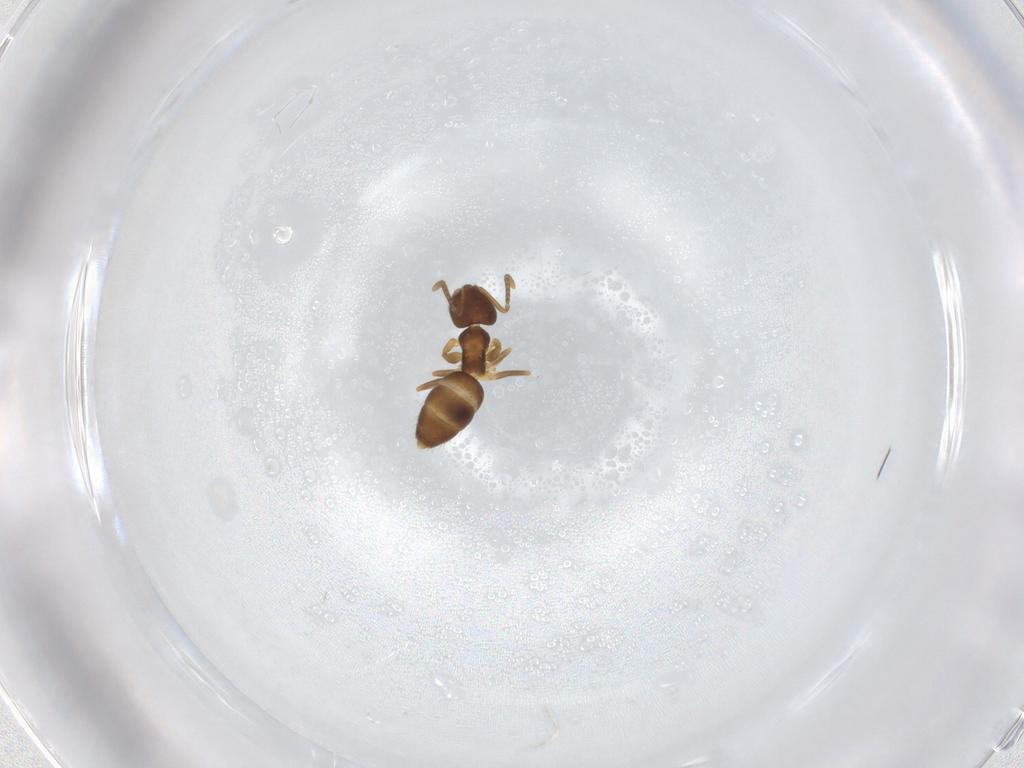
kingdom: Animalia
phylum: Arthropoda
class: Insecta
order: Hymenoptera
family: Formicidae
